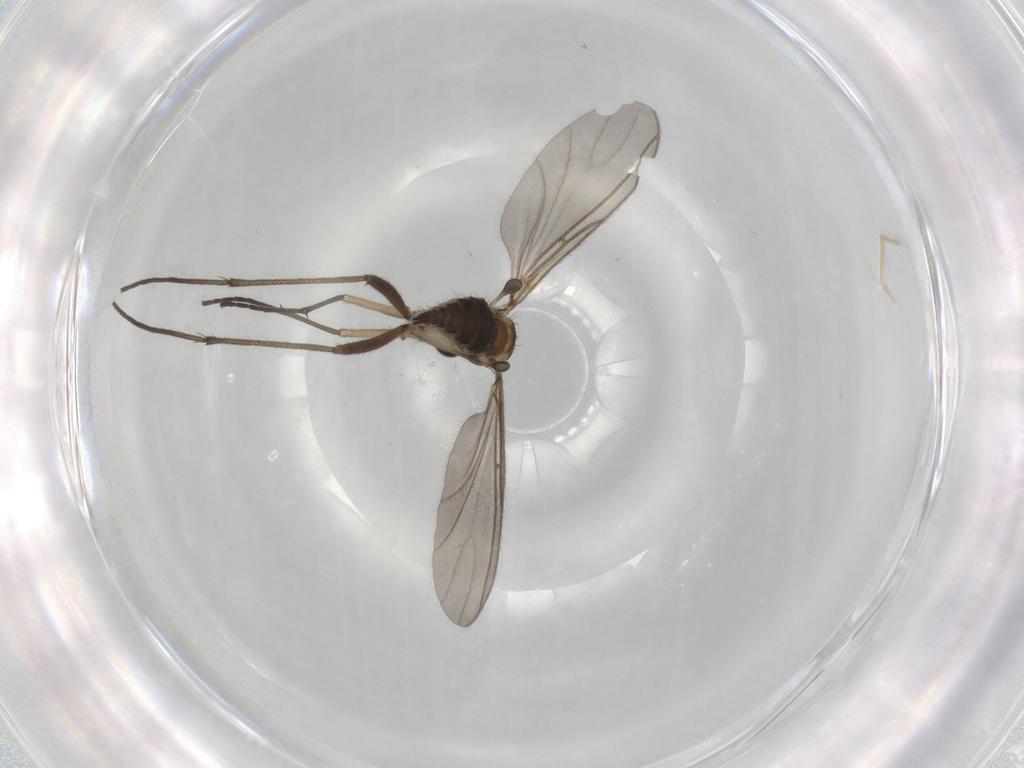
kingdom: Animalia
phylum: Arthropoda
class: Insecta
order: Diptera
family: Sciaridae
